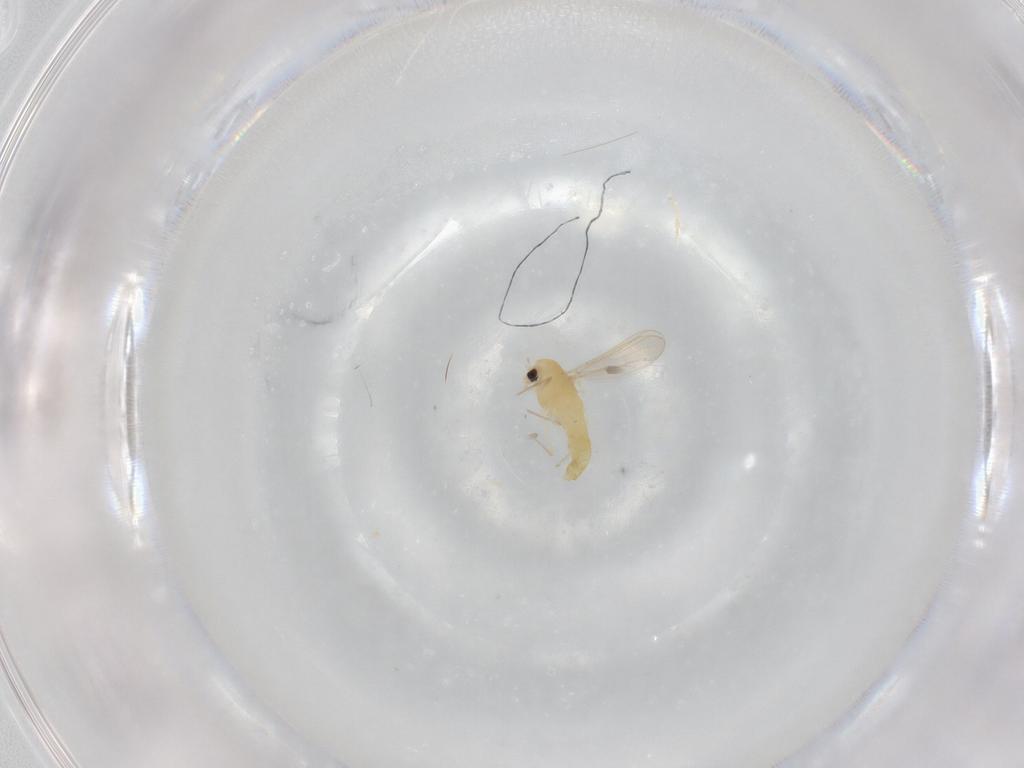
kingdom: Animalia
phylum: Arthropoda
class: Insecta
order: Diptera
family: Chironomidae
